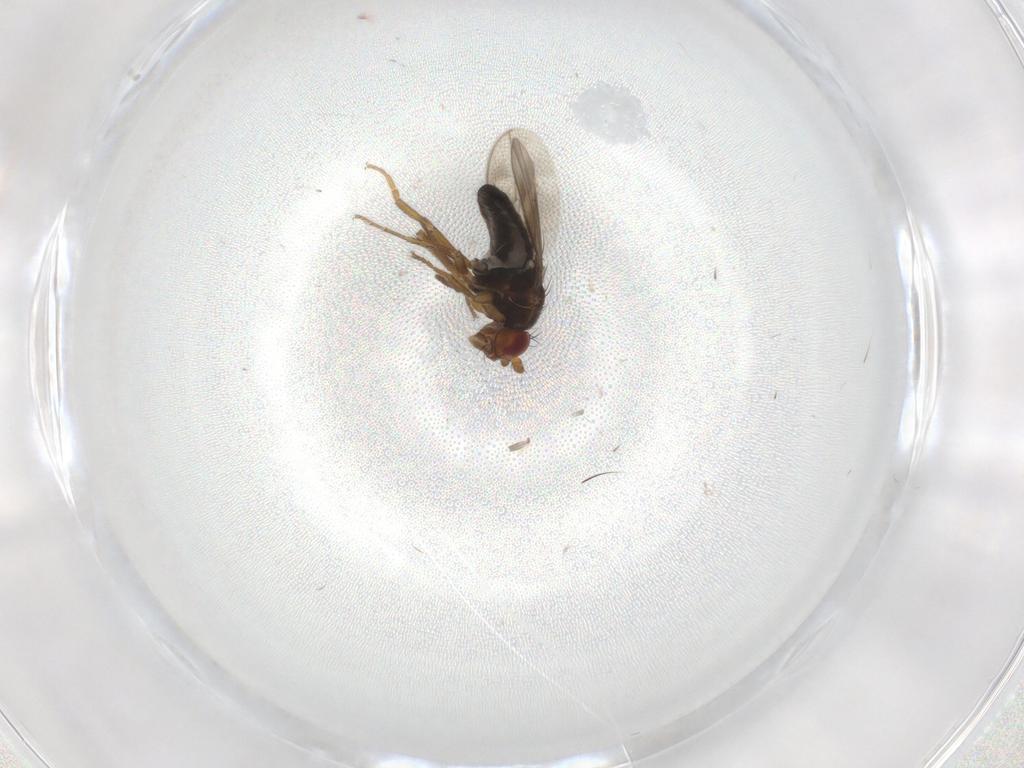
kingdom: Animalia
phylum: Arthropoda
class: Insecta
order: Diptera
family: Sphaeroceridae
